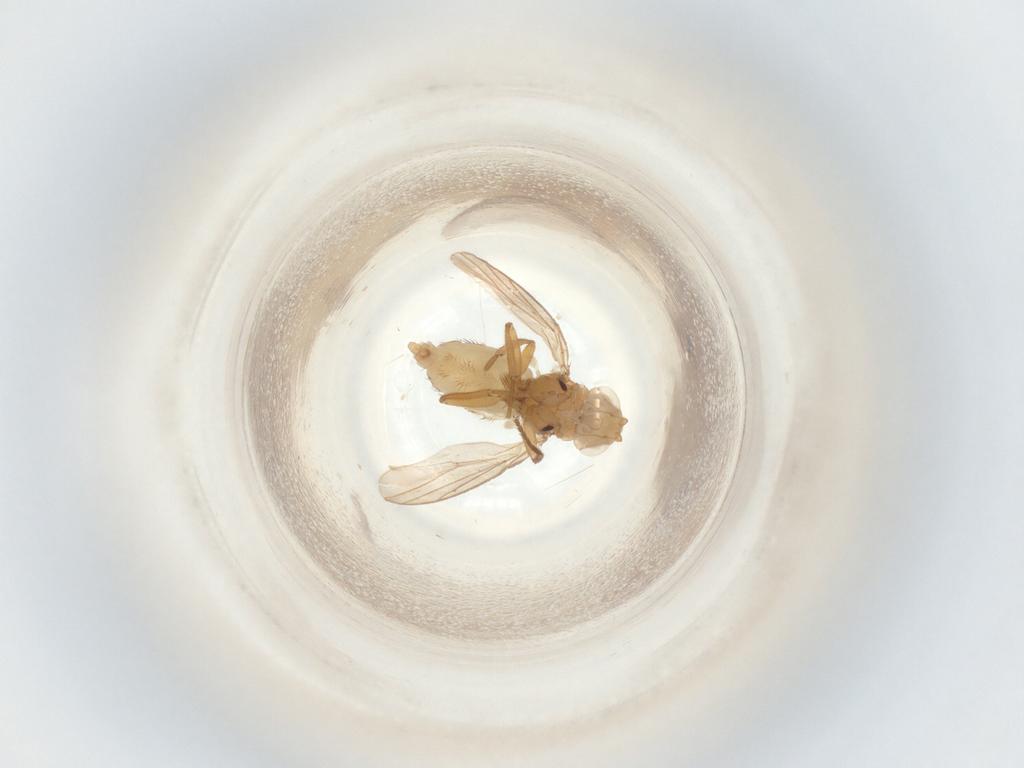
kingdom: Animalia
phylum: Arthropoda
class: Insecta
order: Diptera
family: Chloropidae
